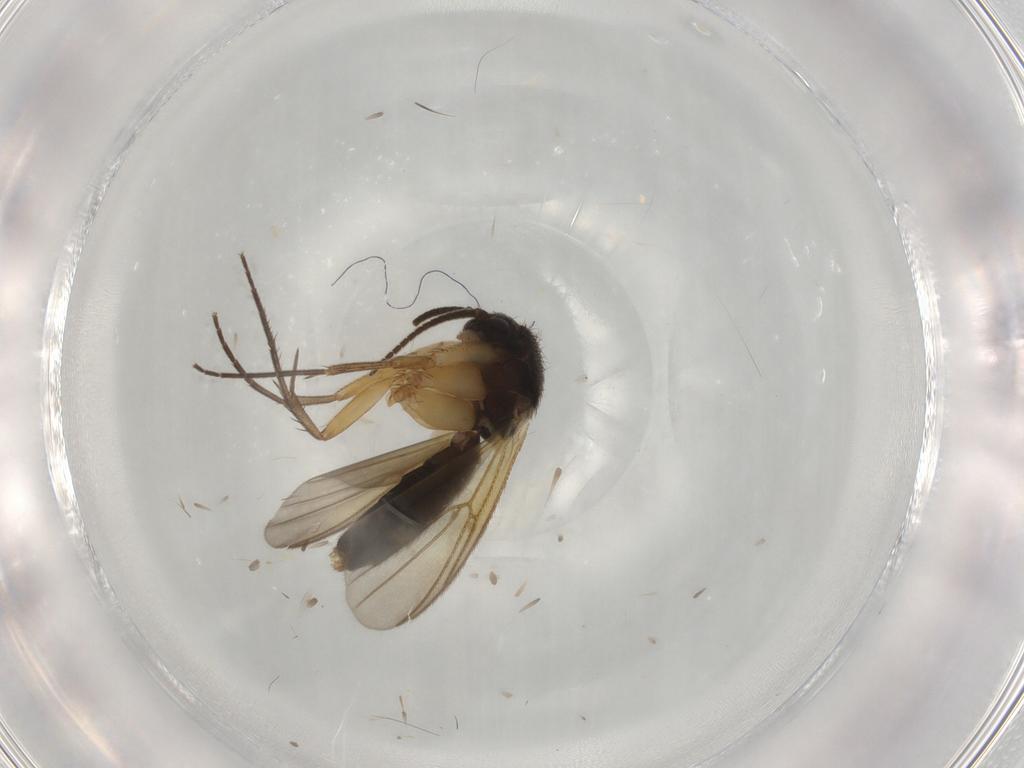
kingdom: Animalia
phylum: Arthropoda
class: Insecta
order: Diptera
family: Mycetophilidae
